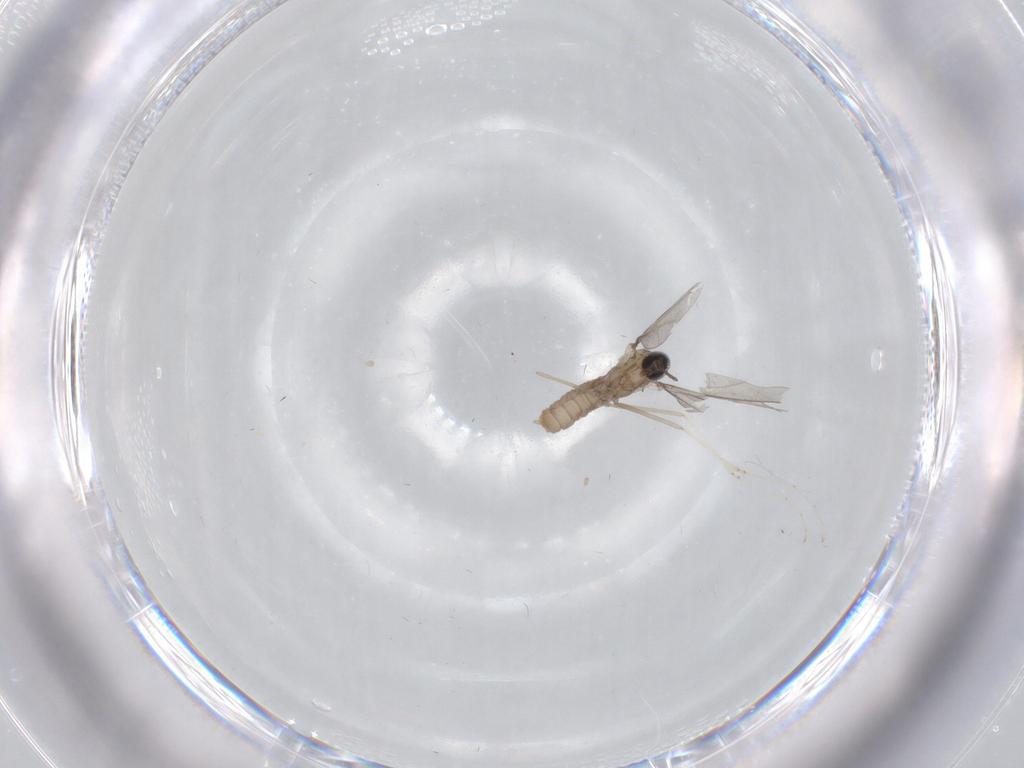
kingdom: Animalia
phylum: Arthropoda
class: Insecta
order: Diptera
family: Cecidomyiidae
